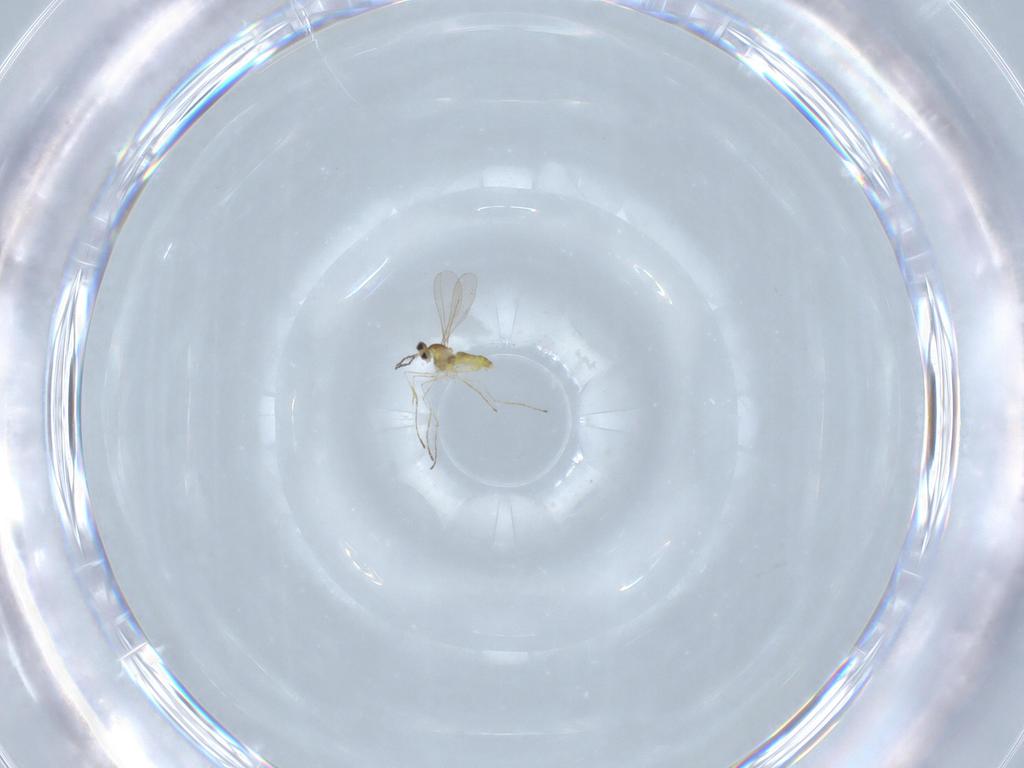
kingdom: Animalia
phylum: Arthropoda
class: Insecta
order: Diptera
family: Cecidomyiidae
